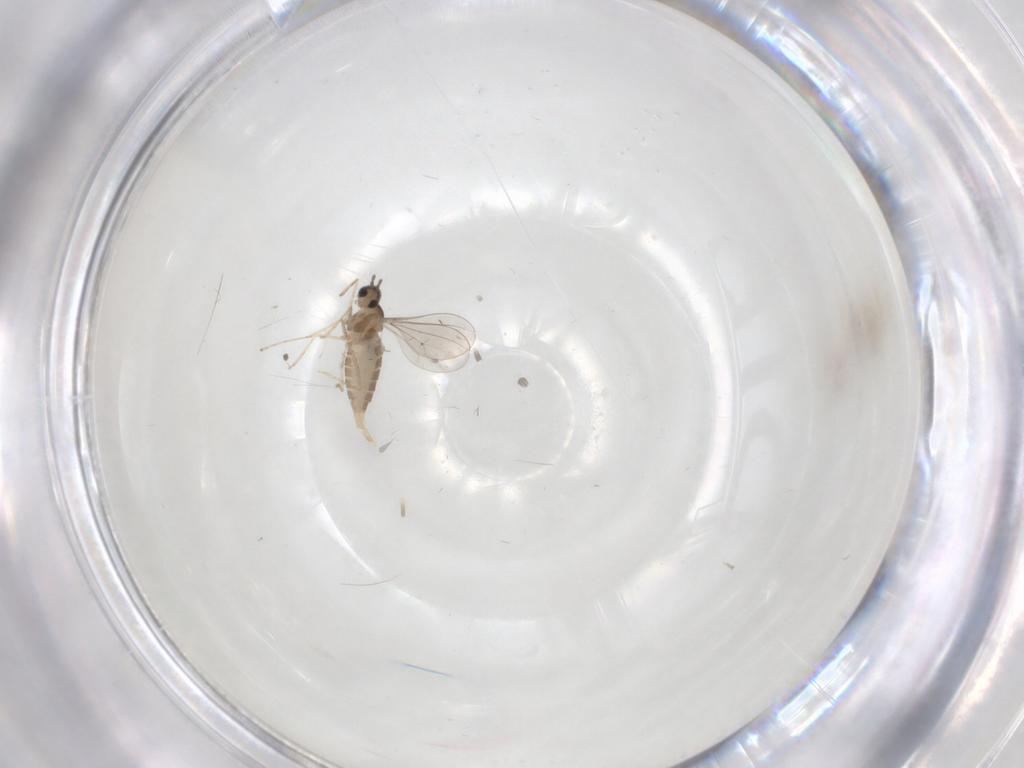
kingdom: Animalia
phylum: Arthropoda
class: Insecta
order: Diptera
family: Cecidomyiidae
